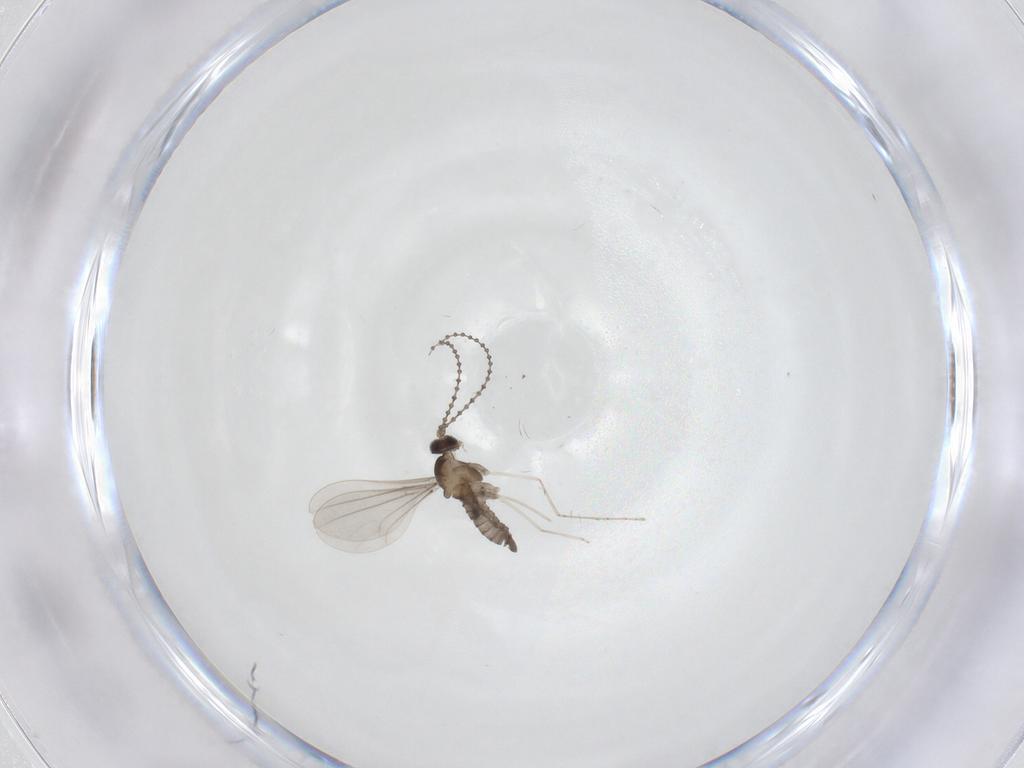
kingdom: Animalia
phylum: Arthropoda
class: Insecta
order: Diptera
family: Cecidomyiidae
